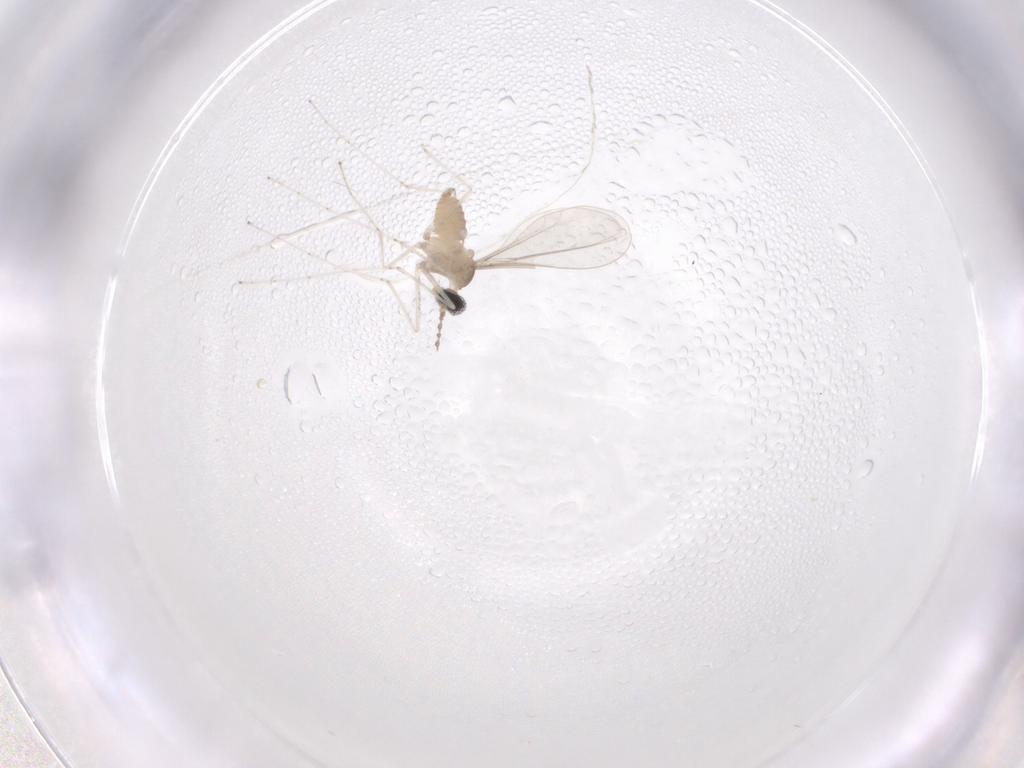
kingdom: Animalia
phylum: Arthropoda
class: Insecta
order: Diptera
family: Cecidomyiidae
